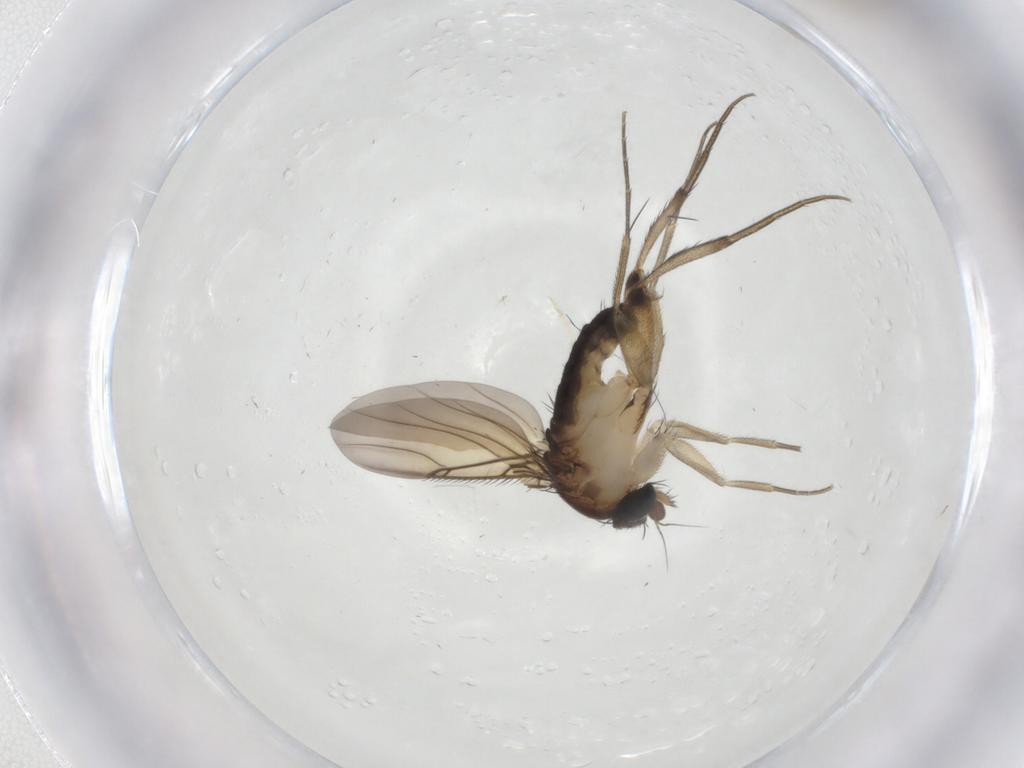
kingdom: Animalia
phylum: Arthropoda
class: Insecta
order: Diptera
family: Phoridae
